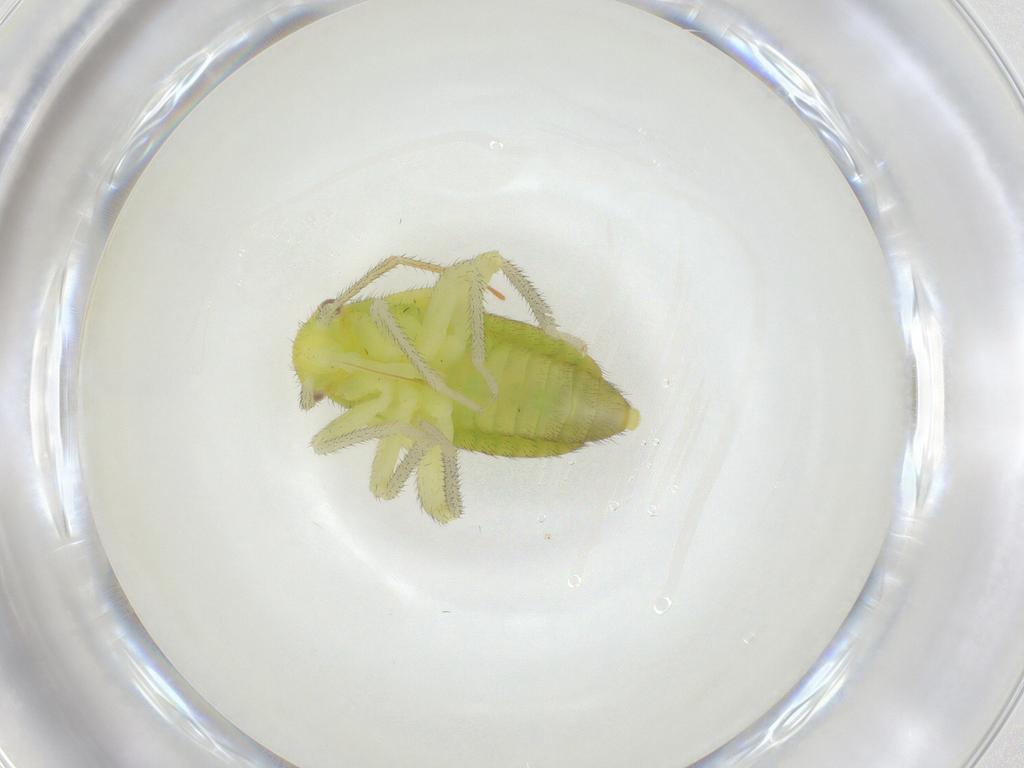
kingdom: Animalia
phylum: Arthropoda
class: Insecta
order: Hemiptera
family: Miridae
